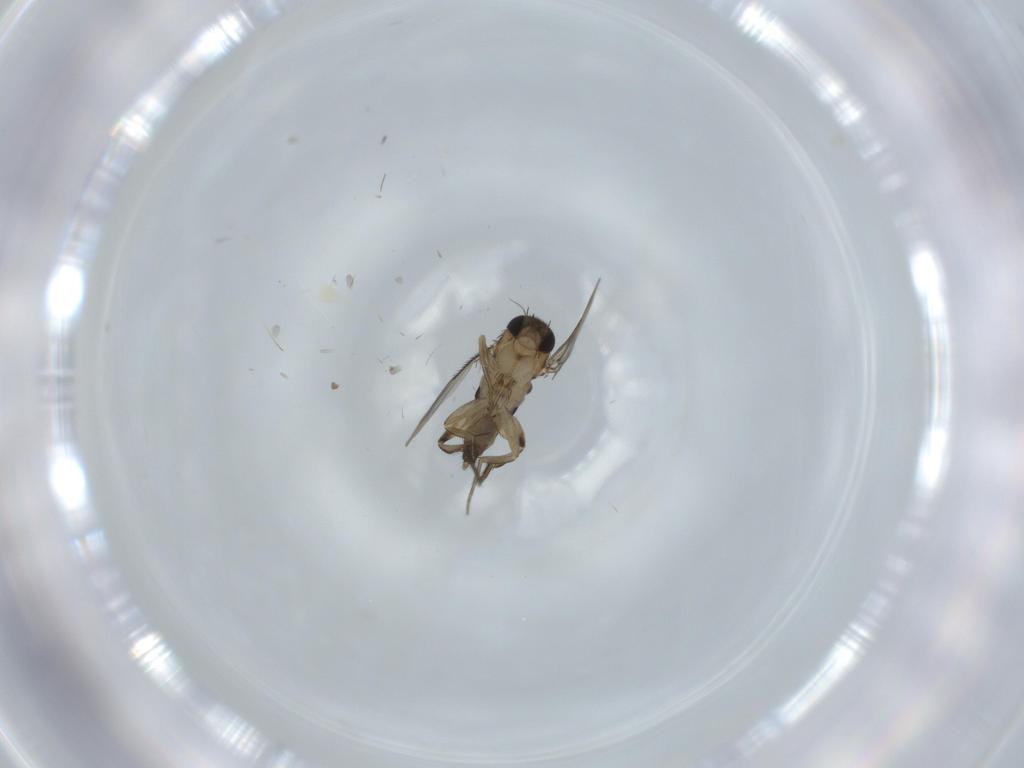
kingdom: Animalia
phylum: Arthropoda
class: Insecta
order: Diptera
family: Phoridae
